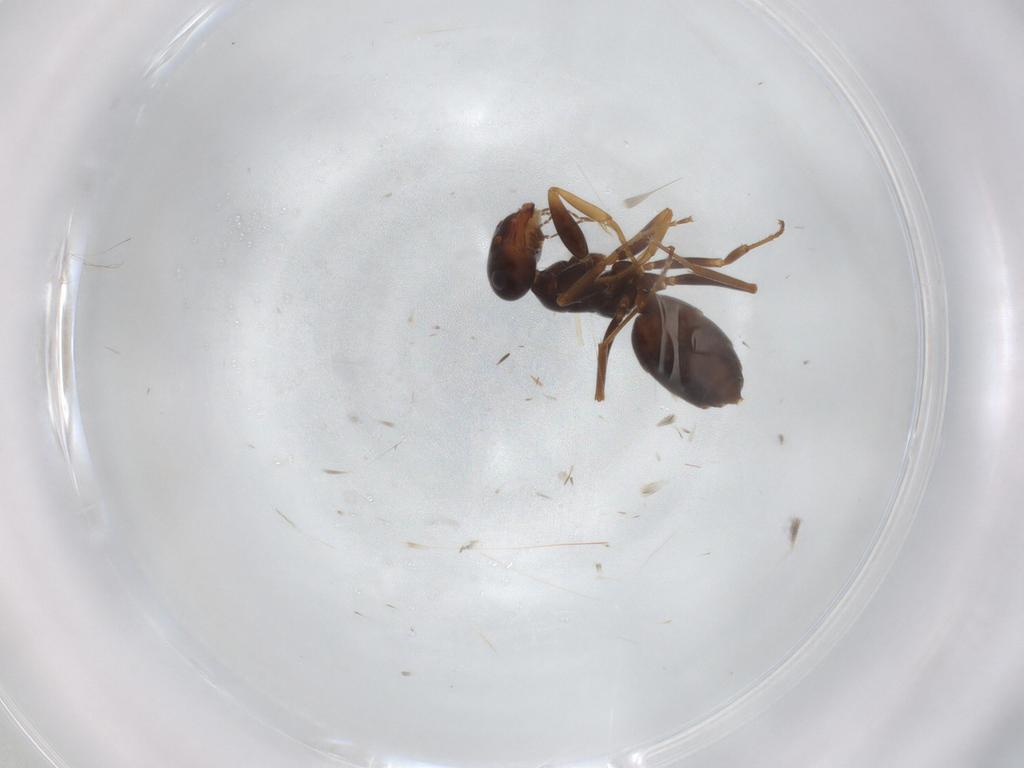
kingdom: Animalia
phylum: Arthropoda
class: Insecta
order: Hymenoptera
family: Formicidae
